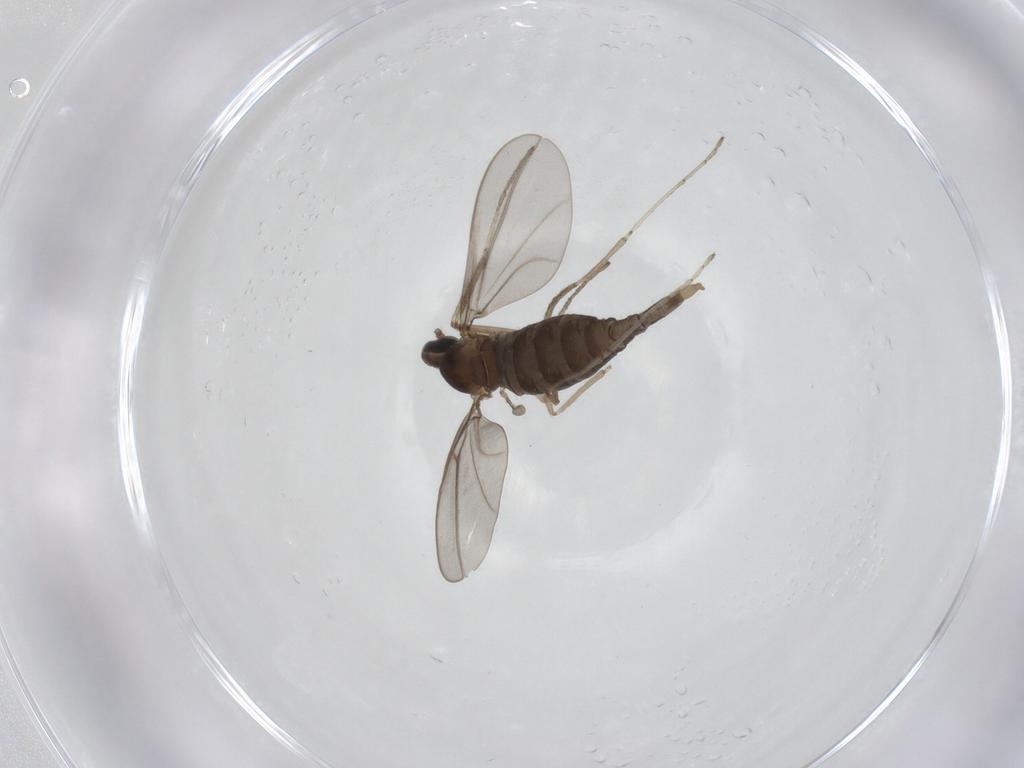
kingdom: Animalia
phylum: Arthropoda
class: Insecta
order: Diptera
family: Cecidomyiidae
